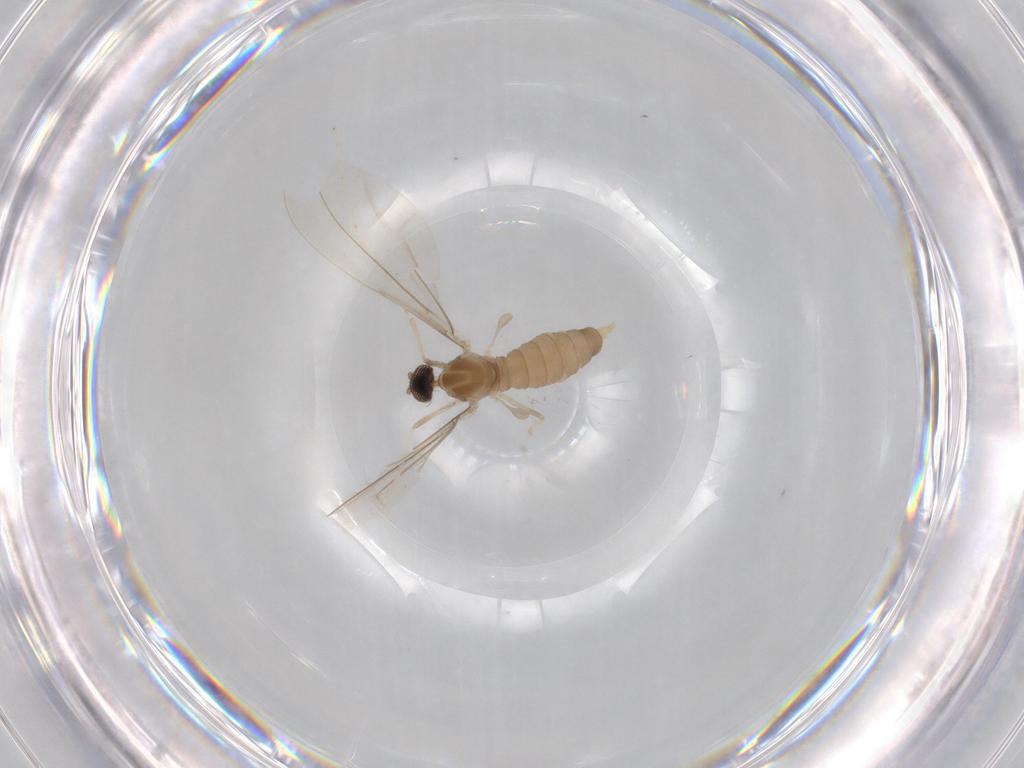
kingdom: Animalia
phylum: Arthropoda
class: Insecta
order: Diptera
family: Cecidomyiidae
